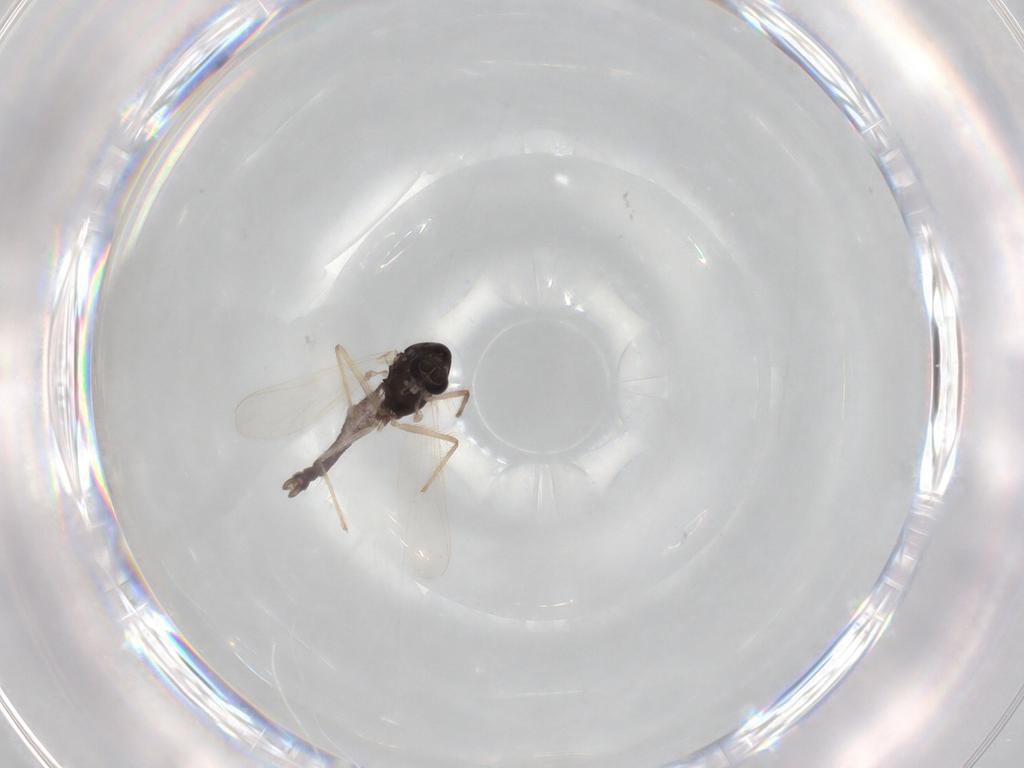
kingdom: Animalia
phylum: Arthropoda
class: Insecta
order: Diptera
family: Chironomidae
